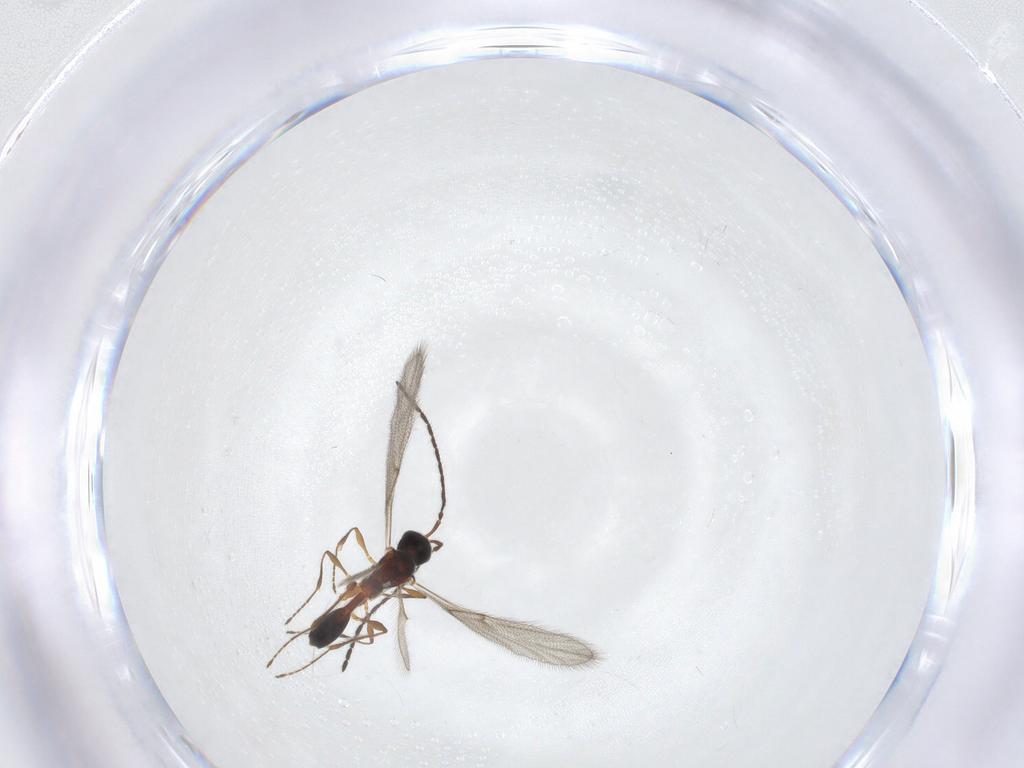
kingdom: Animalia
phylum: Arthropoda
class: Insecta
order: Hymenoptera
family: Diapriidae
